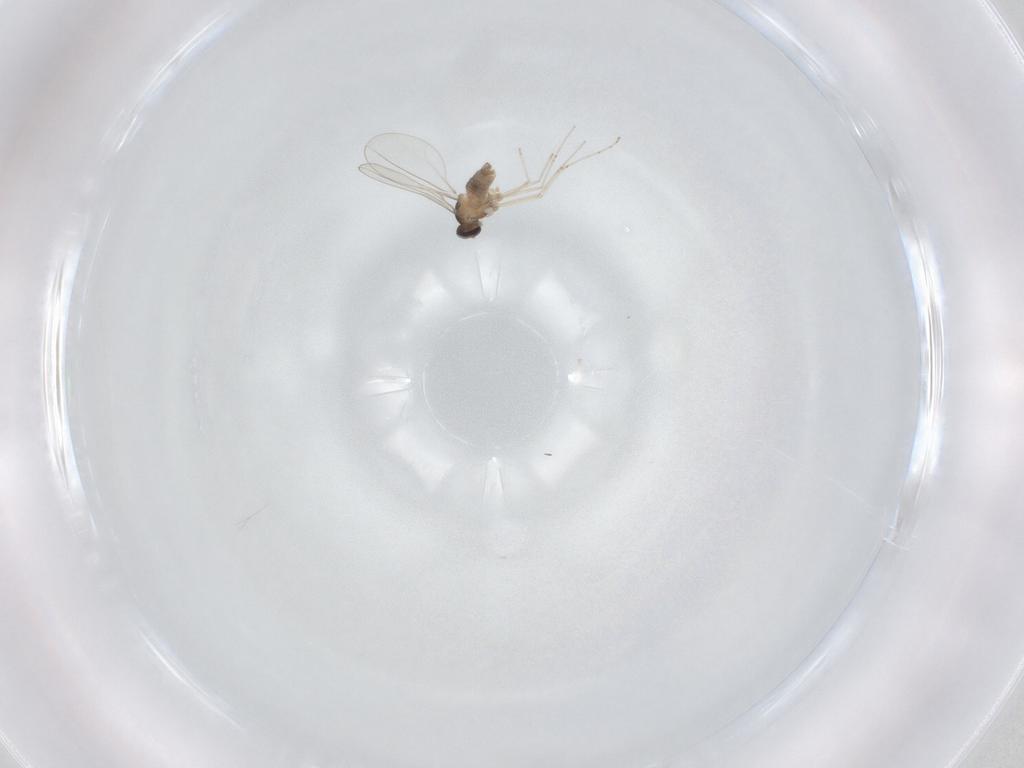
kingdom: Animalia
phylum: Arthropoda
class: Insecta
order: Diptera
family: Cecidomyiidae
